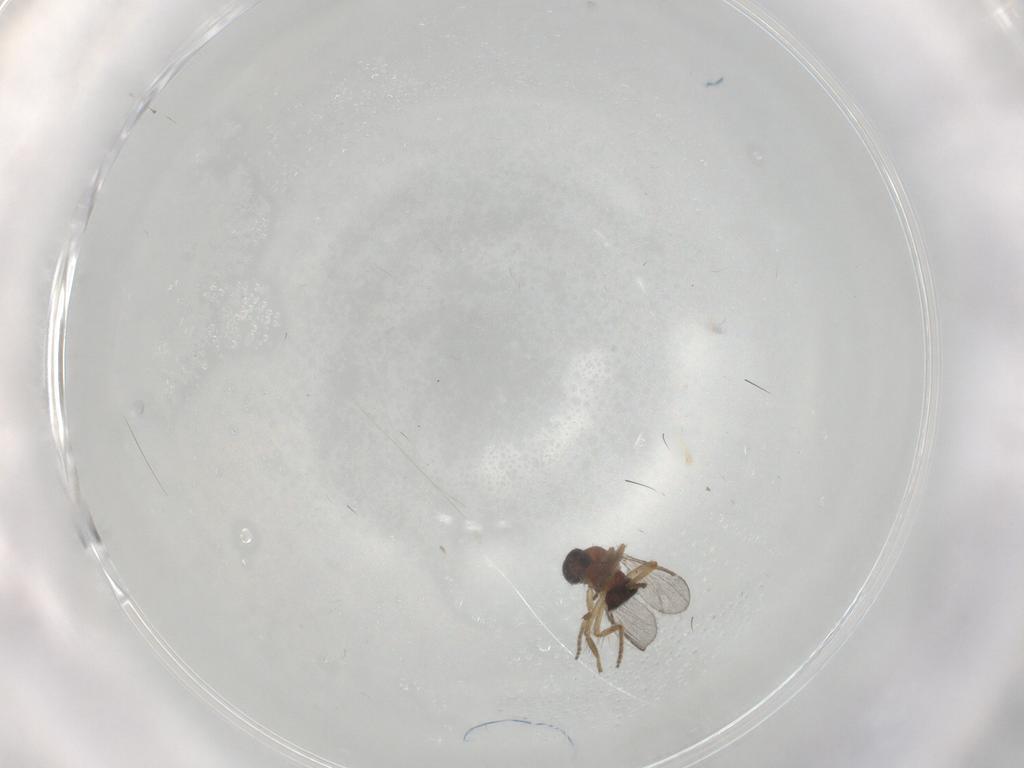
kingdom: Animalia
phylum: Arthropoda
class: Insecta
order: Diptera
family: Ceratopogonidae
